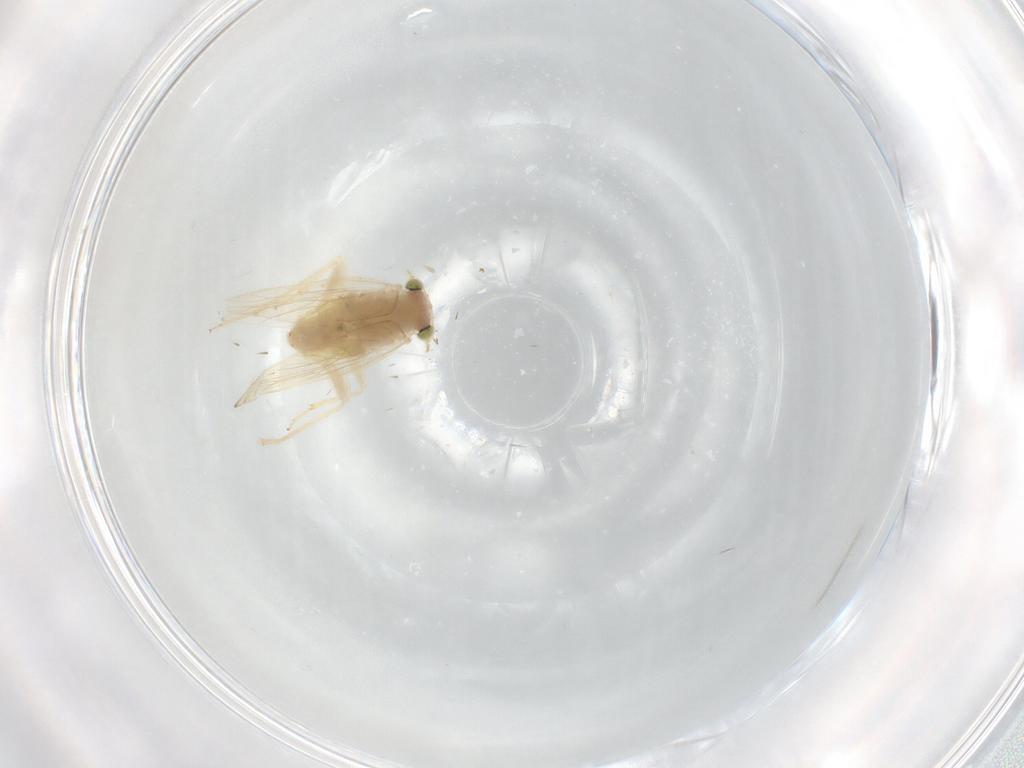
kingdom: Animalia
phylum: Arthropoda
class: Insecta
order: Psocodea
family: Lepidopsocidae
